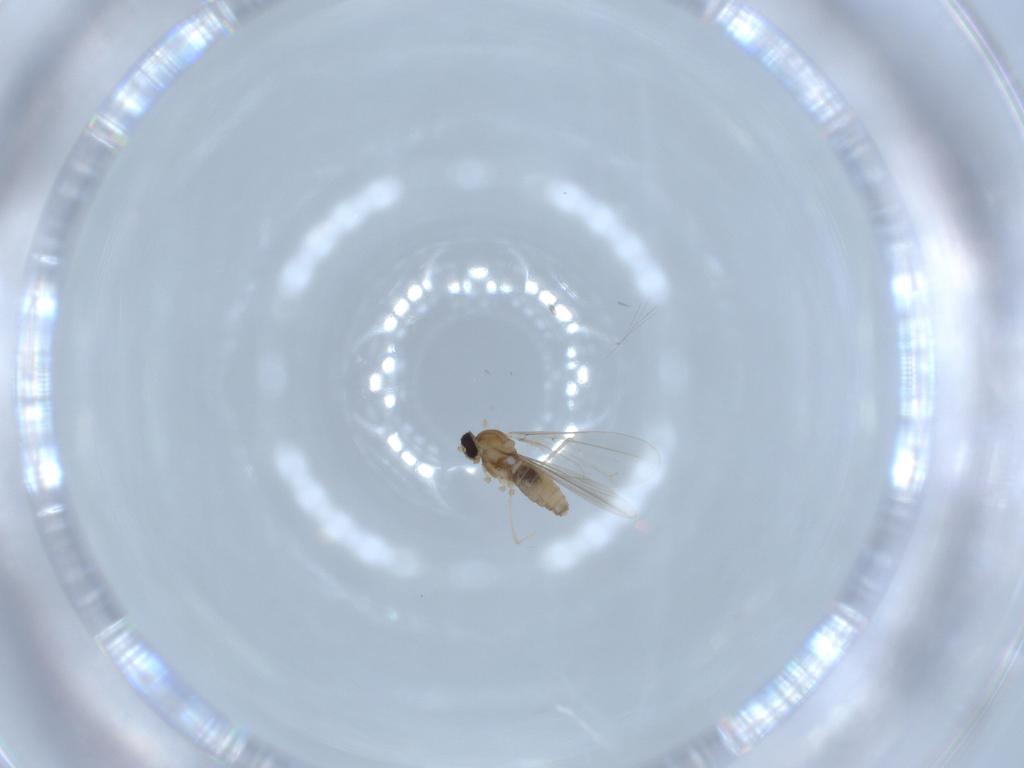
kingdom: Animalia
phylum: Arthropoda
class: Insecta
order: Diptera
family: Cecidomyiidae
